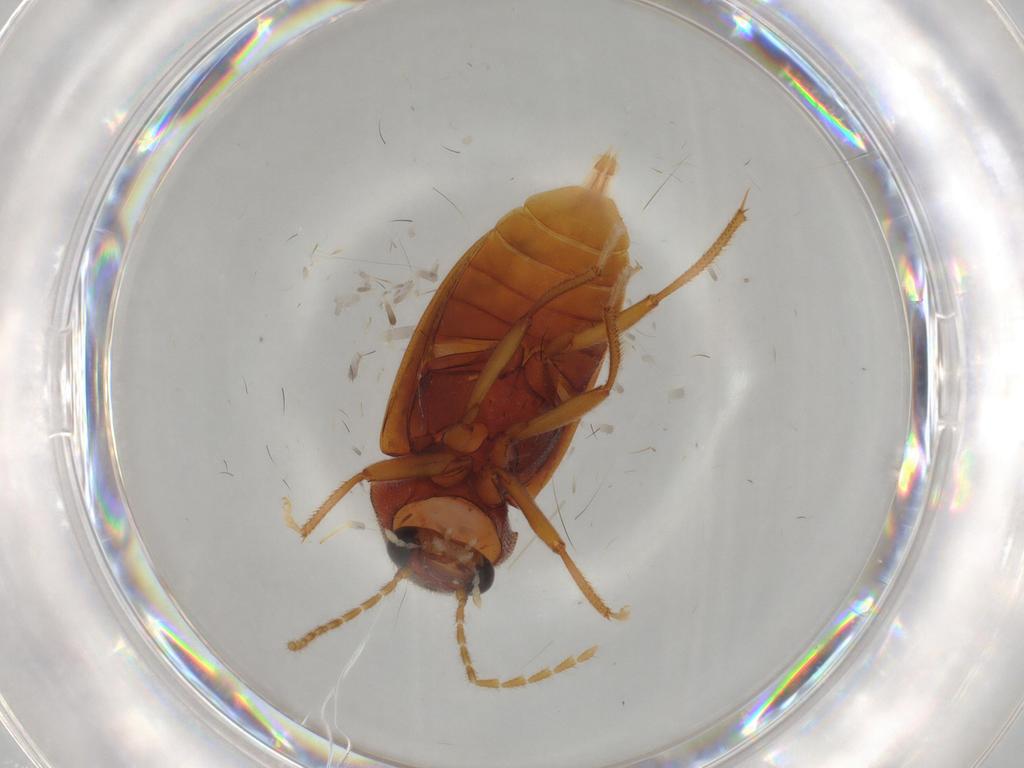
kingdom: Animalia
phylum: Arthropoda
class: Insecta
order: Coleoptera
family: Ptilodactylidae
